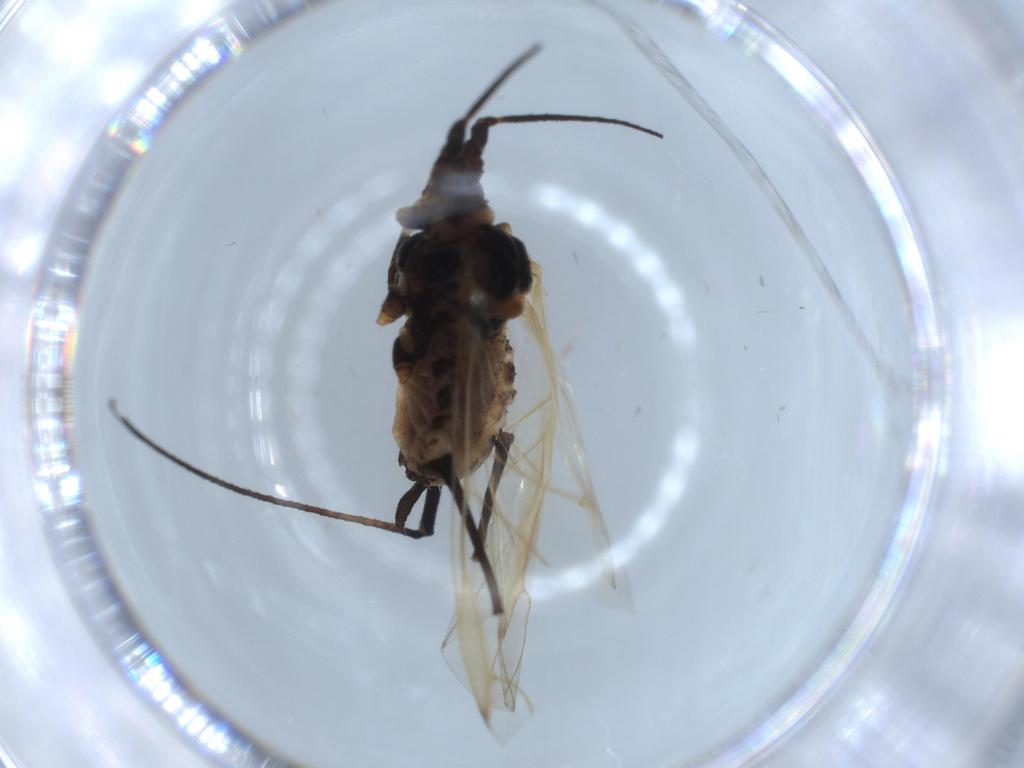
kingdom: Animalia
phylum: Arthropoda
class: Insecta
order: Hemiptera
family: Aphididae
